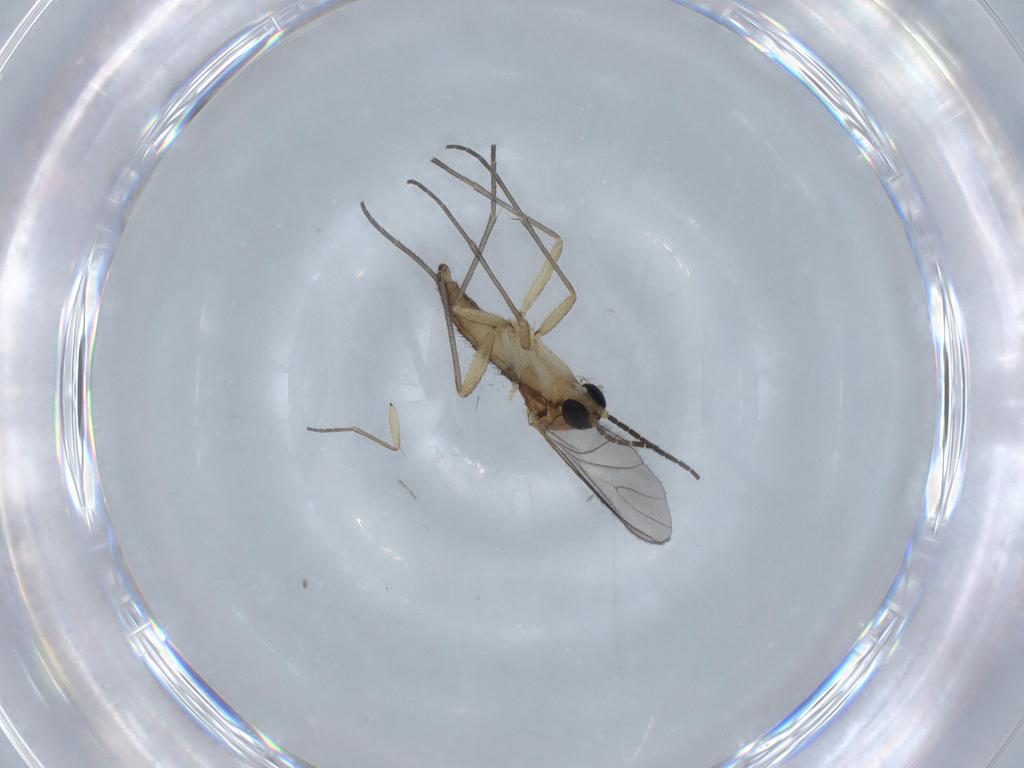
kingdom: Animalia
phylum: Arthropoda
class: Insecta
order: Diptera
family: Sciaridae
